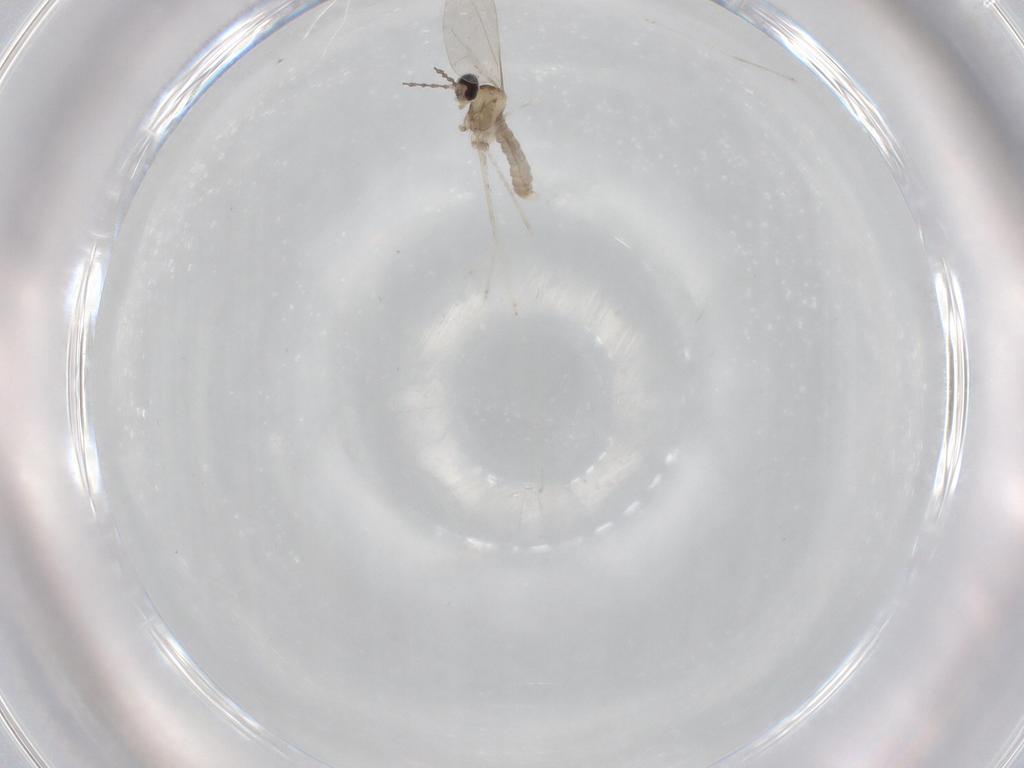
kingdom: Animalia
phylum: Arthropoda
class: Insecta
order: Diptera
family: Cecidomyiidae
